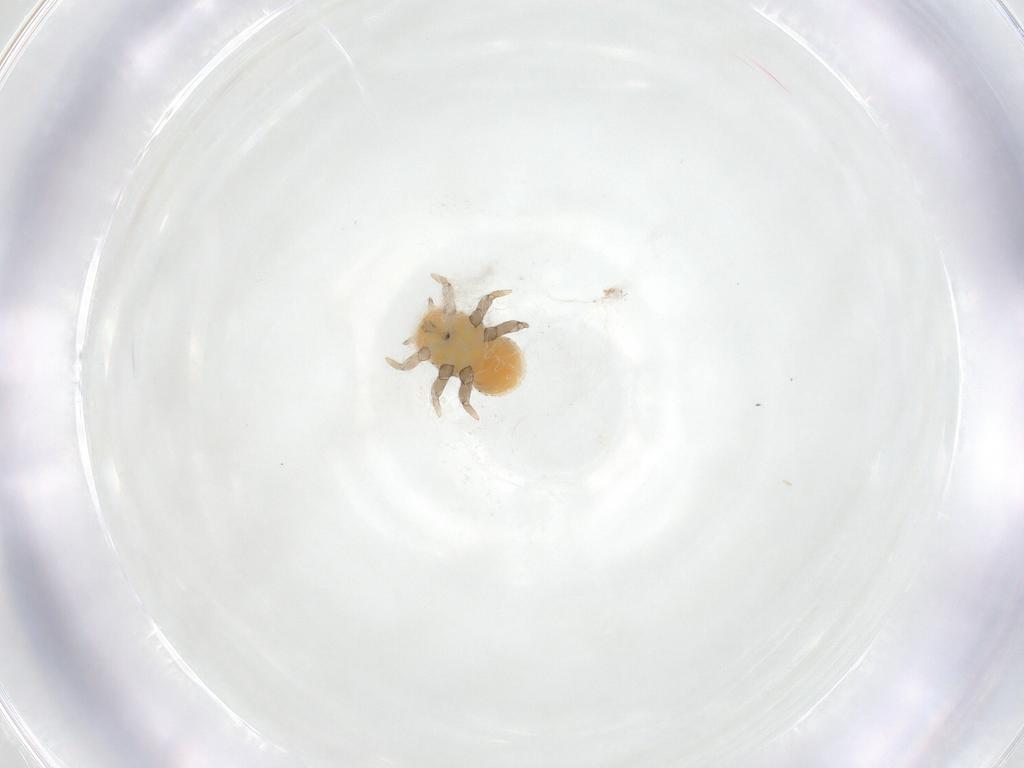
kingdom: Animalia
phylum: Arthropoda
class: Insecta
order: Hemiptera
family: Triozidae
